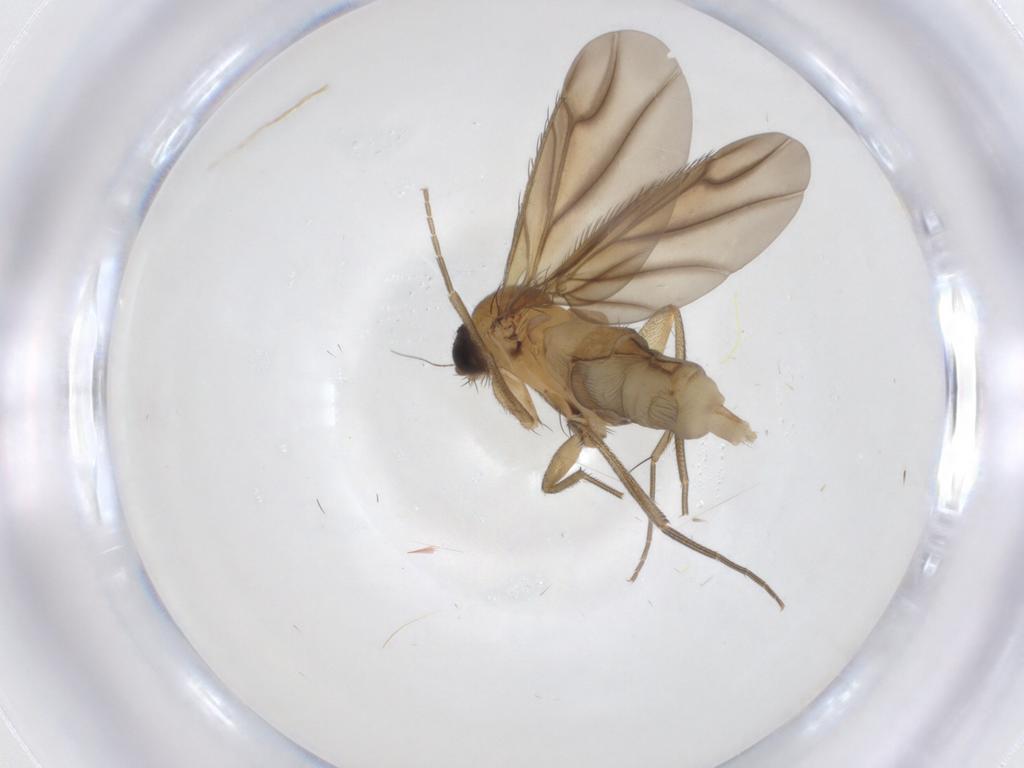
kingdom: Animalia
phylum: Arthropoda
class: Insecta
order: Diptera
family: Phoridae
